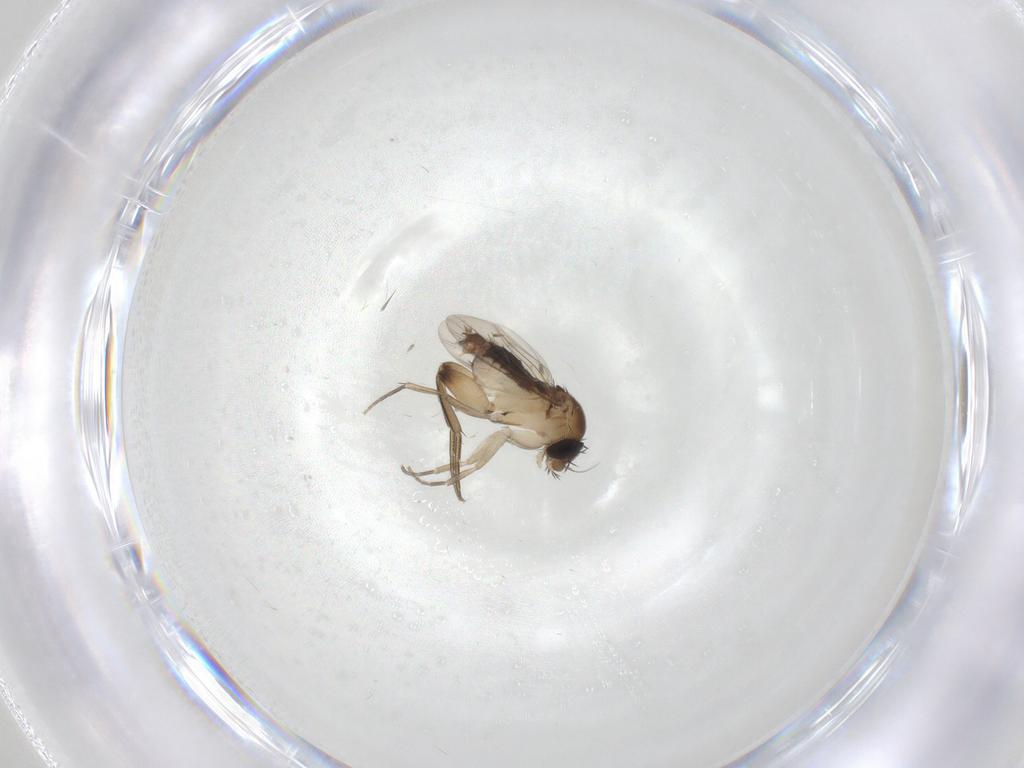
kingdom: Animalia
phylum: Arthropoda
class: Insecta
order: Diptera
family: Phoridae
